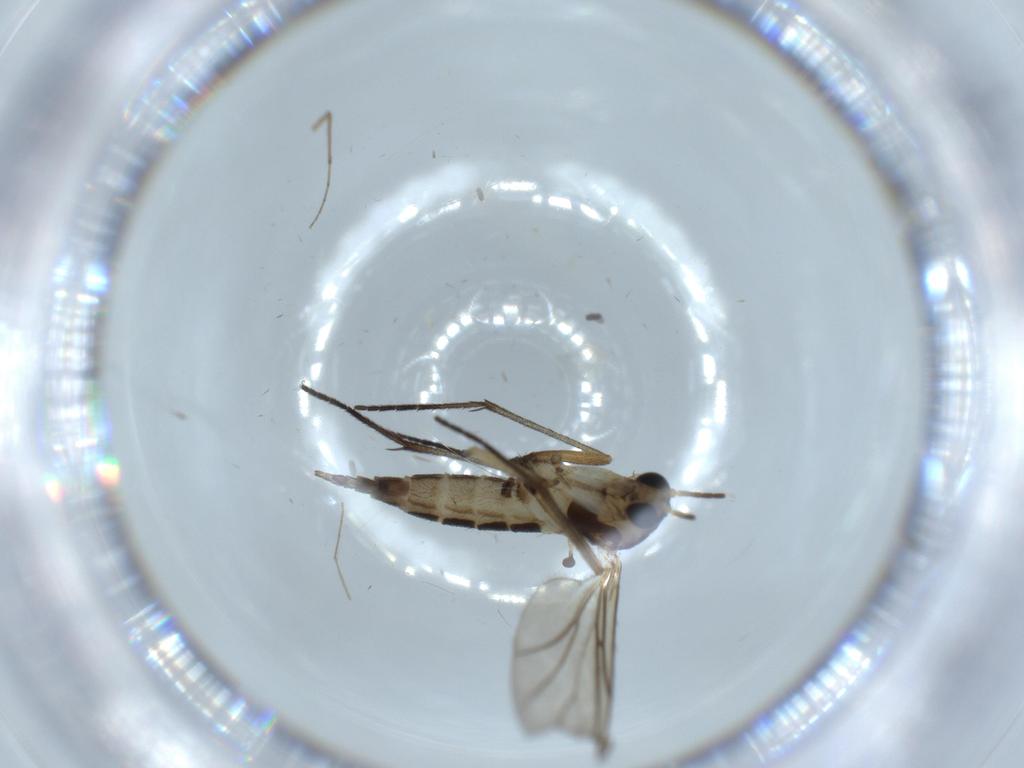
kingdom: Animalia
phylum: Arthropoda
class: Insecta
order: Diptera
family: Chironomidae
